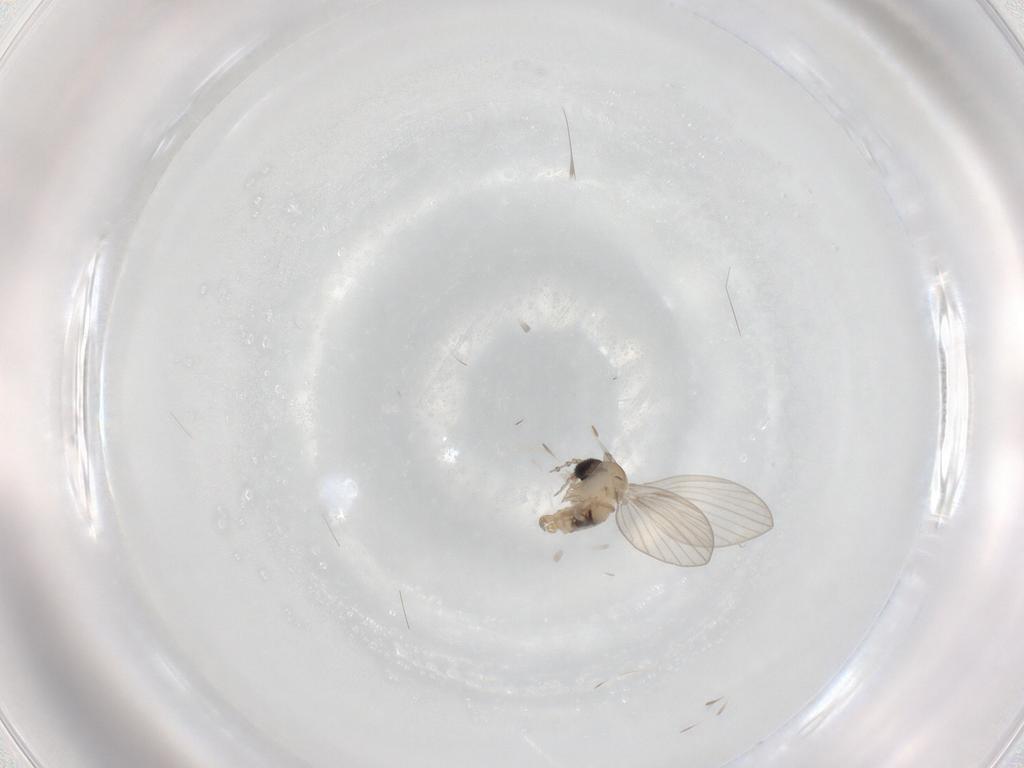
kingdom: Animalia
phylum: Arthropoda
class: Insecta
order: Diptera
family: Psychodidae
